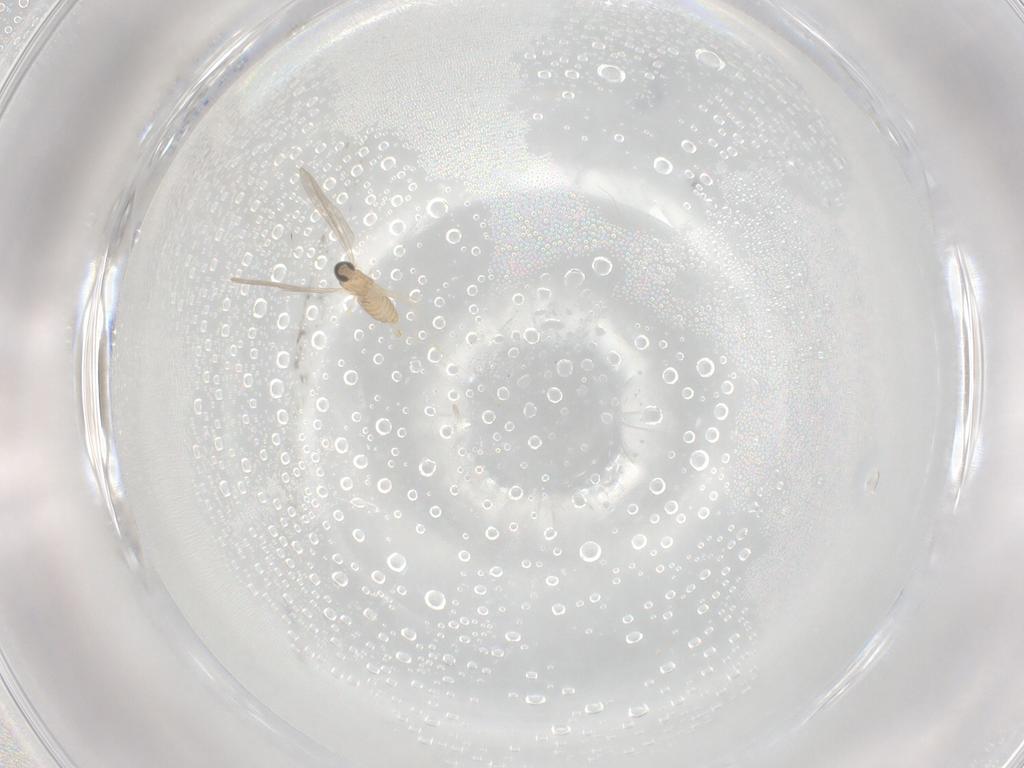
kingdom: Animalia
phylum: Arthropoda
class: Insecta
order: Diptera
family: Cecidomyiidae
